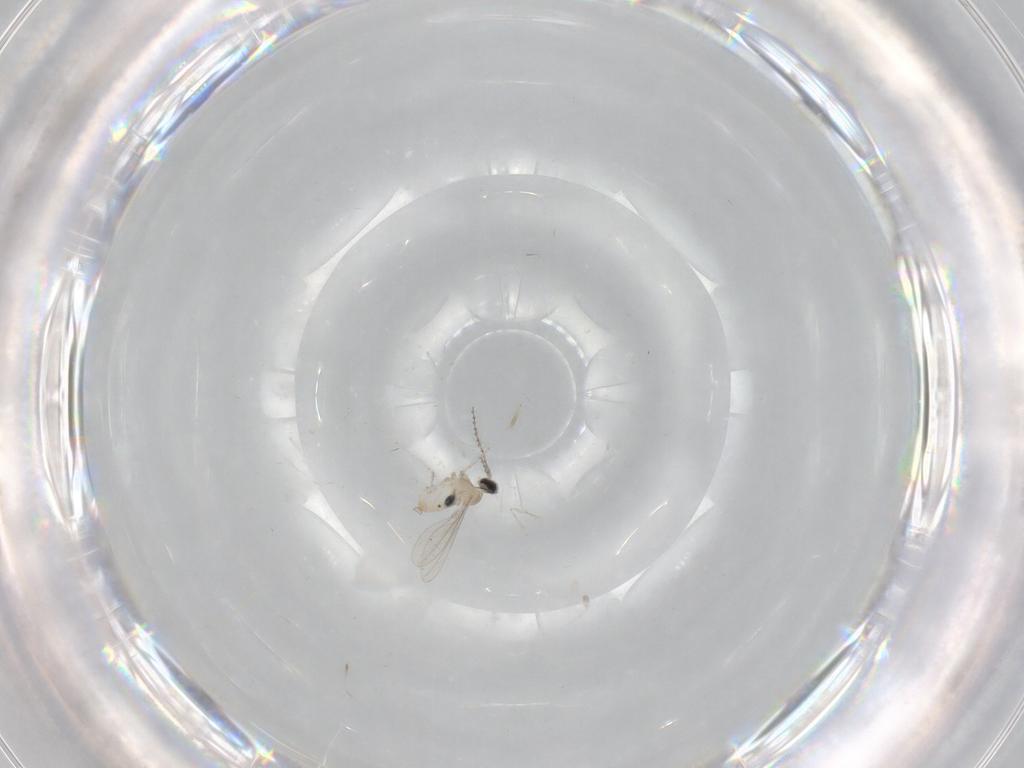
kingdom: Animalia
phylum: Arthropoda
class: Insecta
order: Diptera
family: Cecidomyiidae
